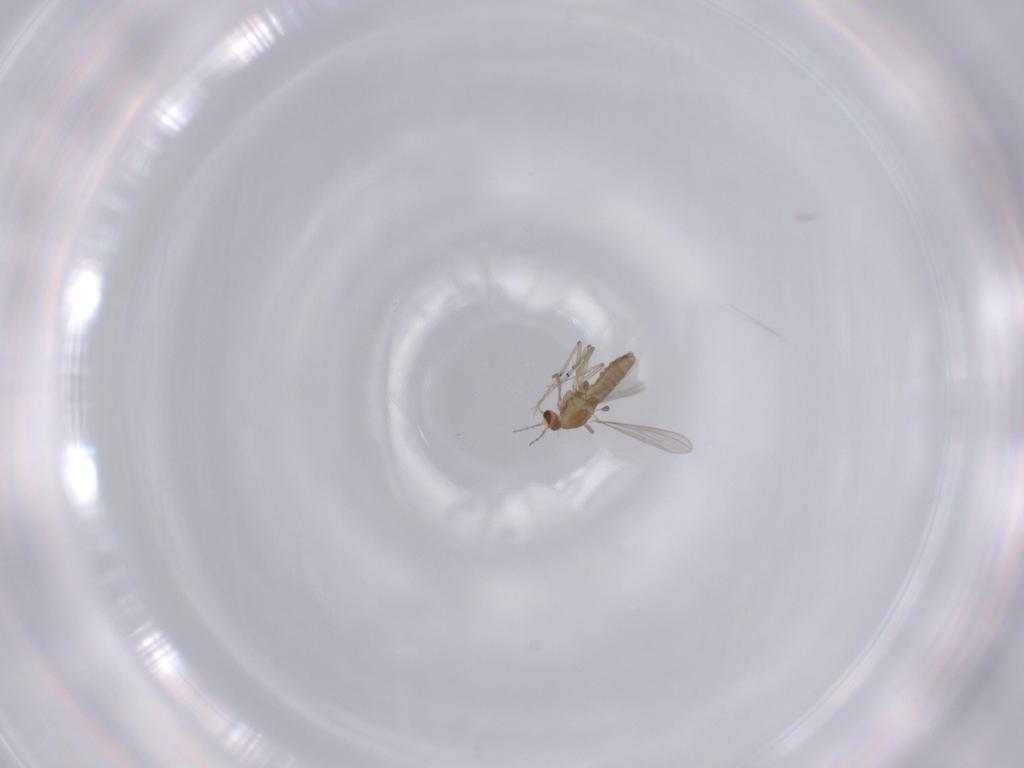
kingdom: Animalia
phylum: Arthropoda
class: Insecta
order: Diptera
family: Chironomidae
